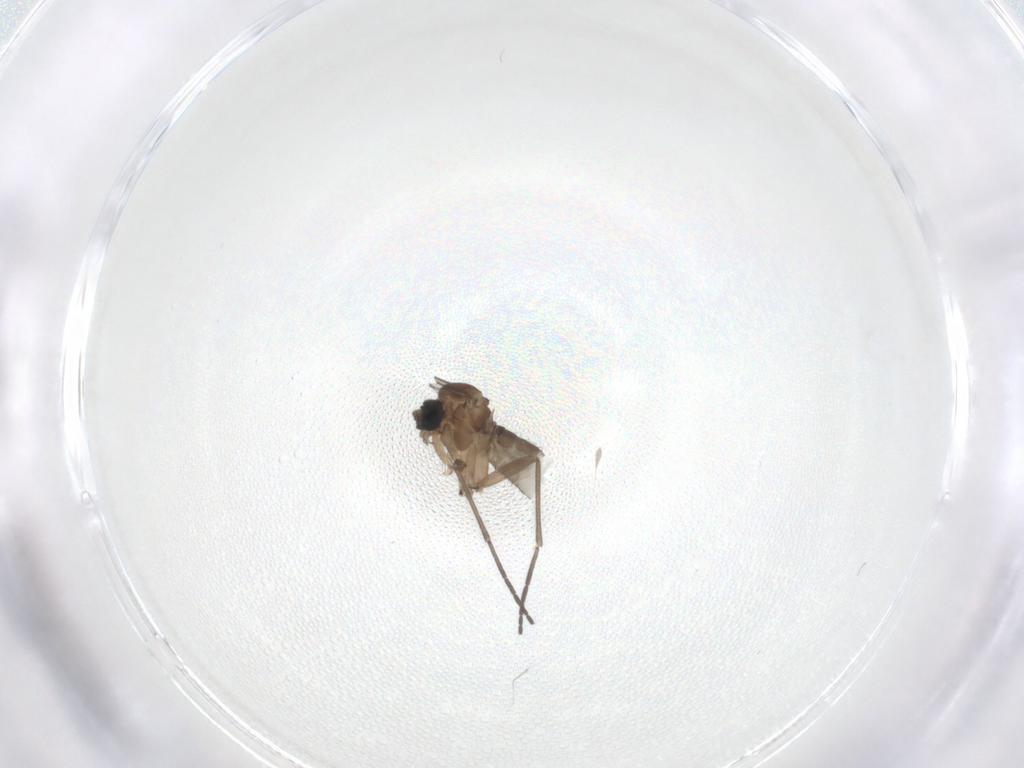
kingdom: Animalia
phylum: Arthropoda
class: Insecta
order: Diptera
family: Sciaridae
